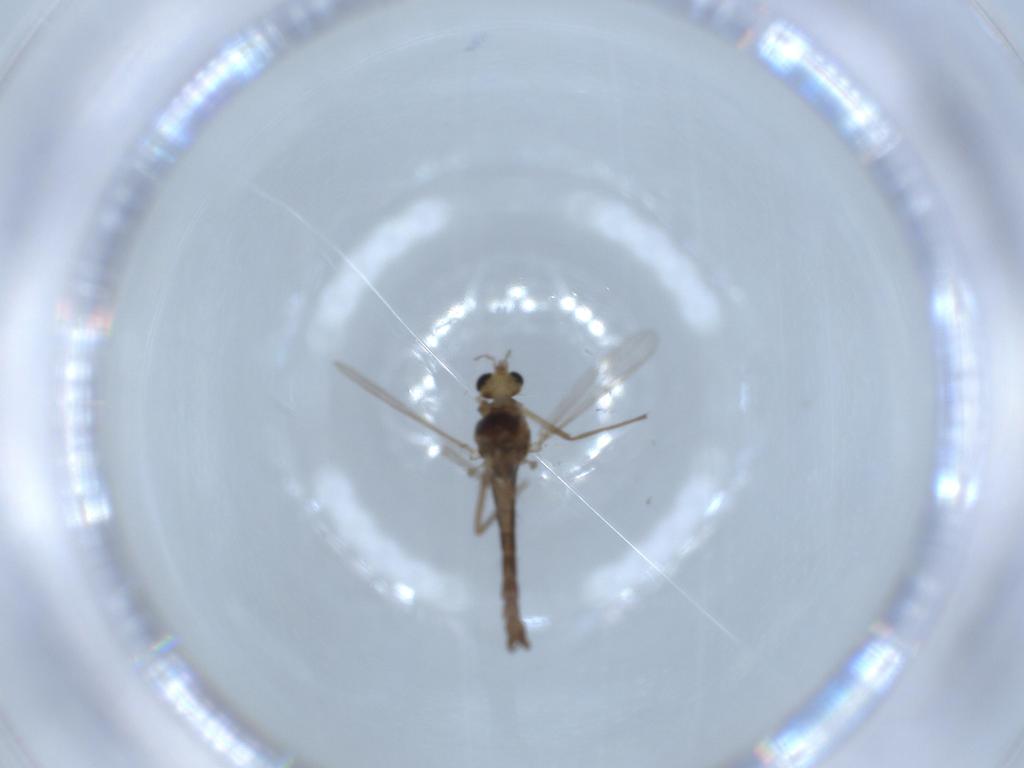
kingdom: Animalia
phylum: Arthropoda
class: Insecta
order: Diptera
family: Chironomidae
